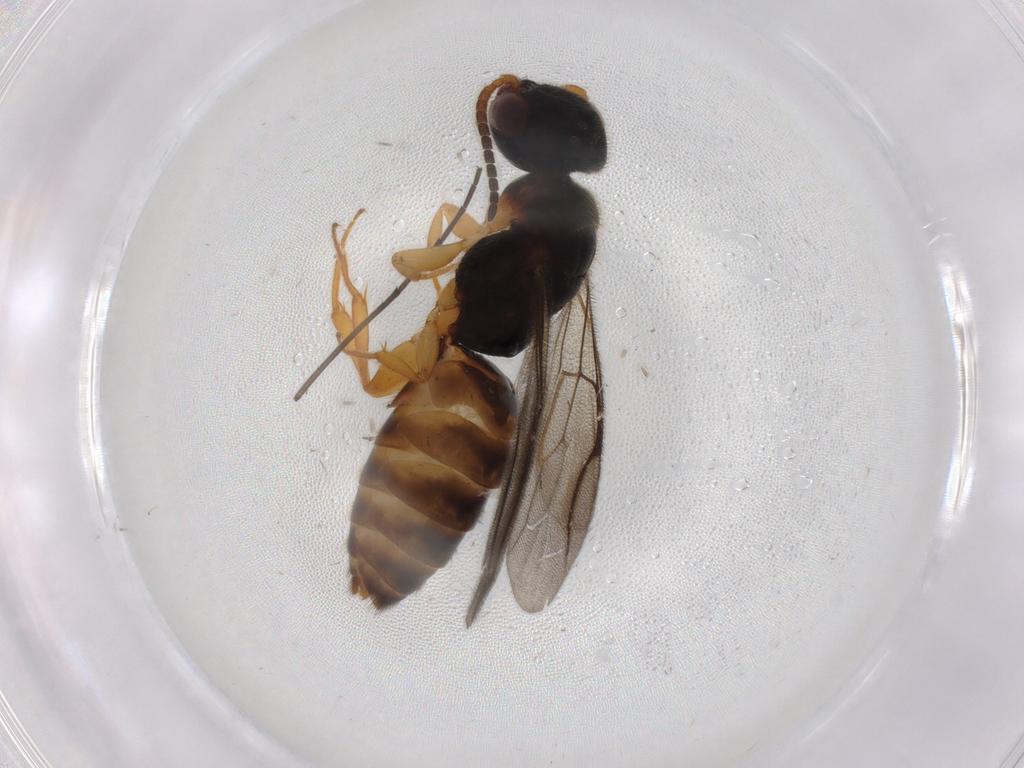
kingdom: Animalia
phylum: Arthropoda
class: Insecta
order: Hymenoptera
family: Bethylidae
